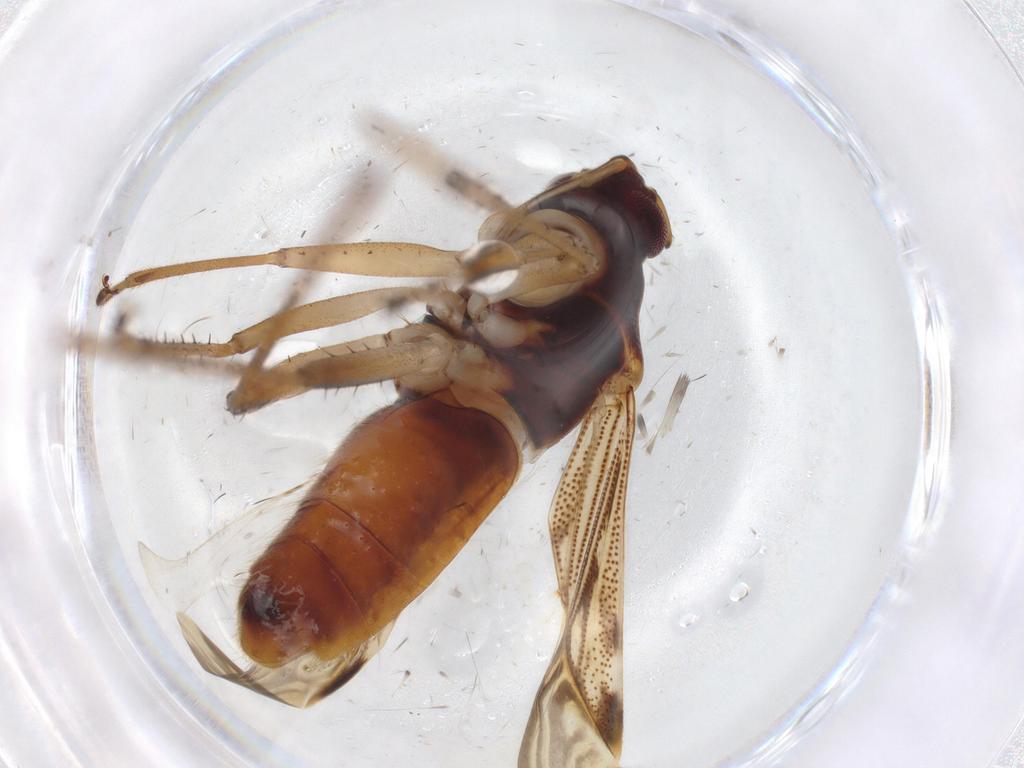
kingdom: Animalia
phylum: Arthropoda
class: Insecta
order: Hemiptera
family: Rhyparochromidae
